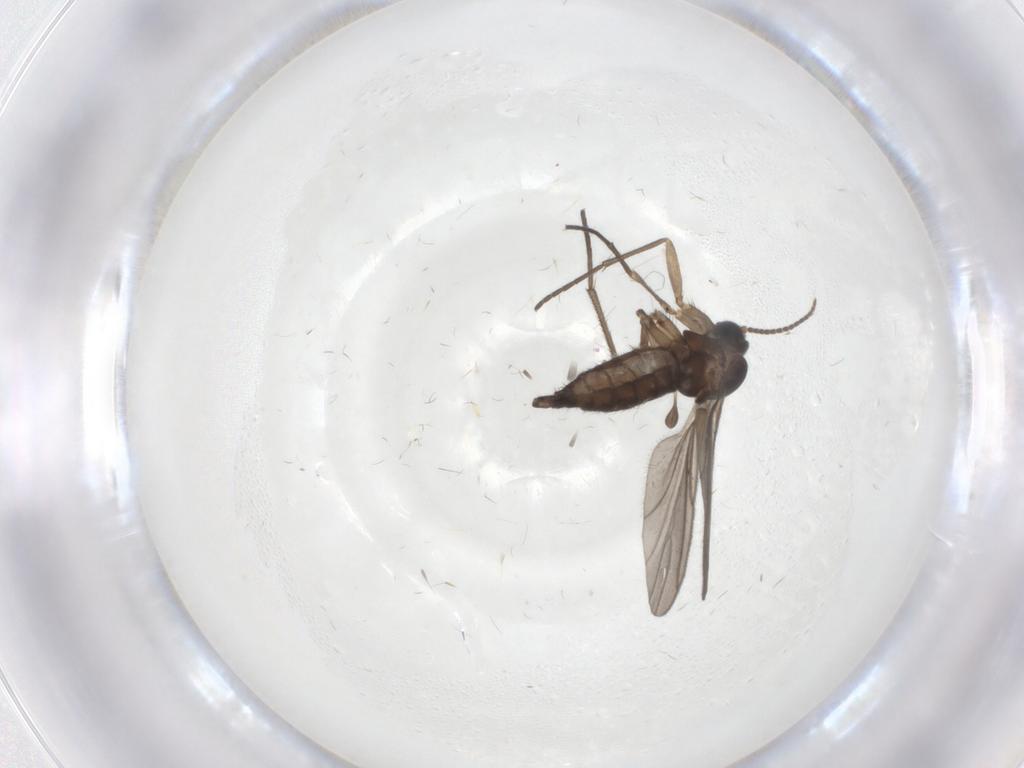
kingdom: Animalia
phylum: Arthropoda
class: Insecta
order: Diptera
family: Sciaridae
